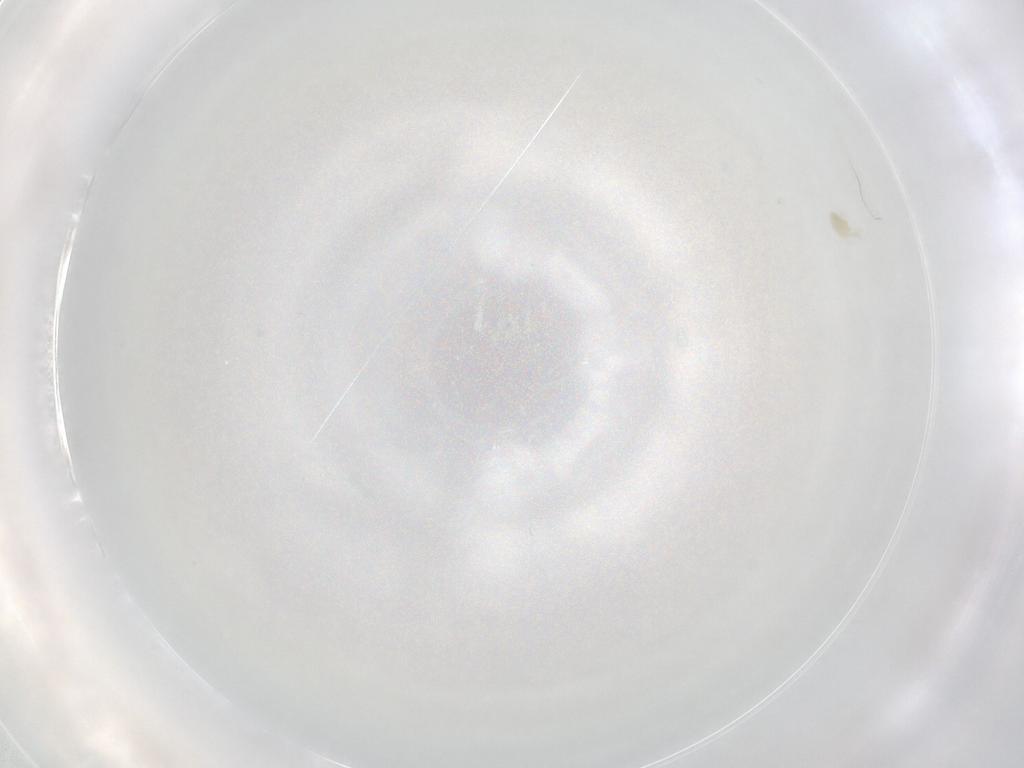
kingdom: Animalia
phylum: Arthropoda
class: Arachnida
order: Trombidiformes
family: Eupodidae
